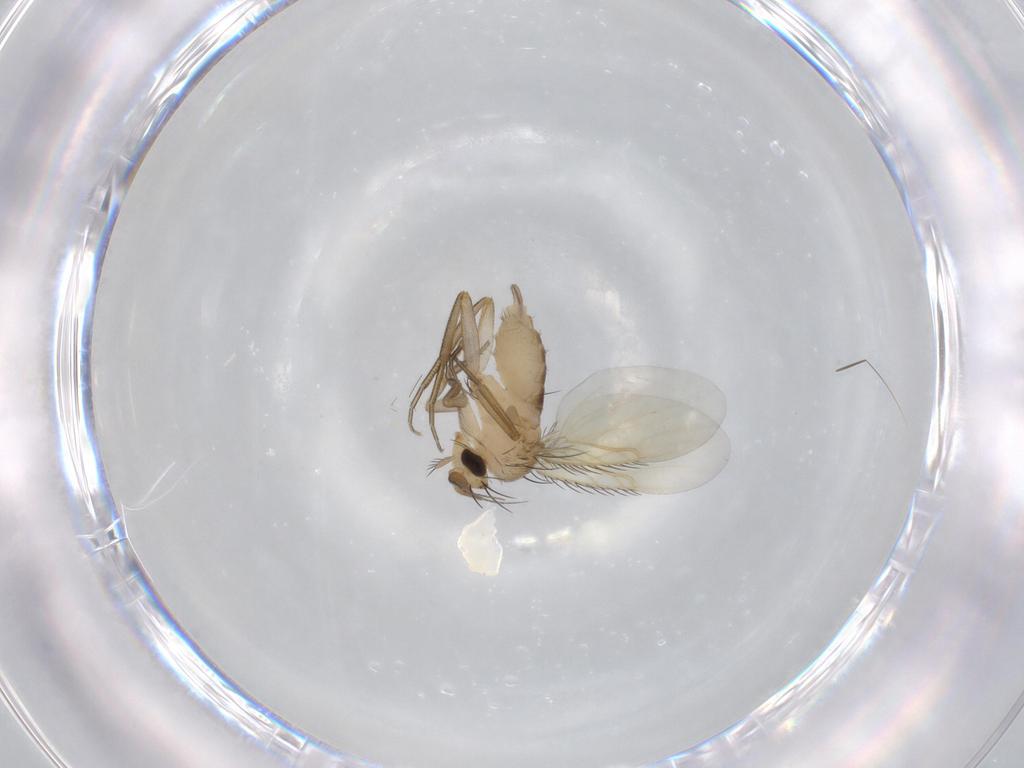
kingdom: Animalia
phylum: Arthropoda
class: Insecta
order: Diptera
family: Phoridae
